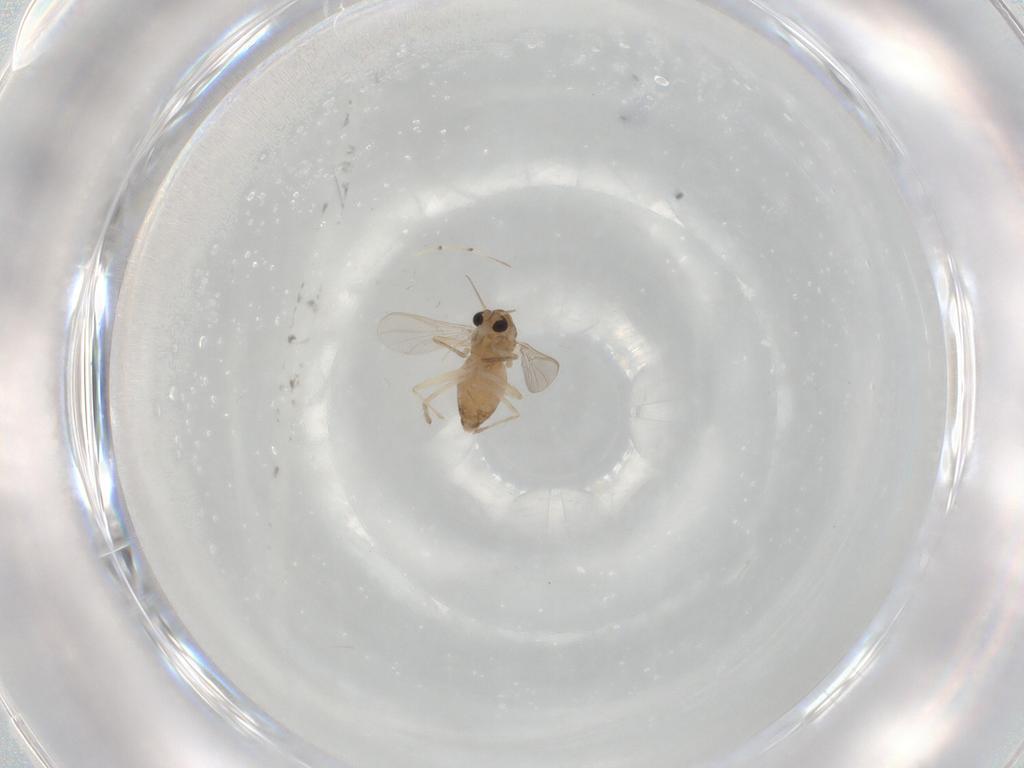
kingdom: Animalia
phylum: Arthropoda
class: Insecta
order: Diptera
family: Chironomidae
